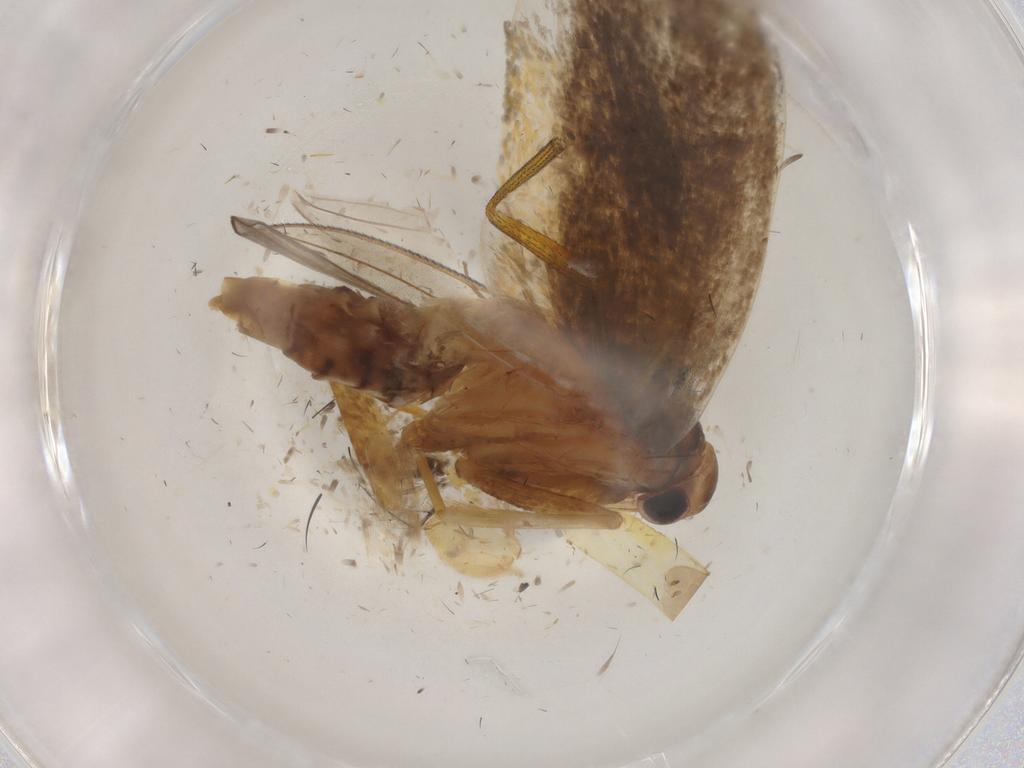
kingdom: Animalia
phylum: Arthropoda
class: Insecta
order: Lepidoptera
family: Lecithoceridae
